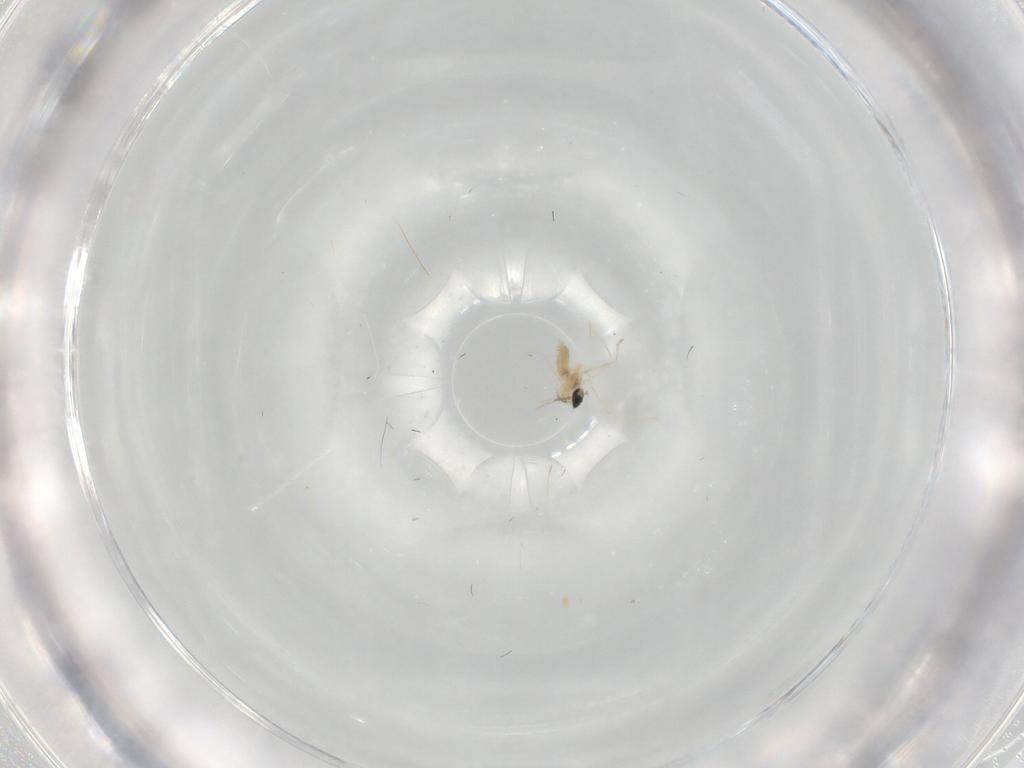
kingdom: Animalia
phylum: Arthropoda
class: Insecta
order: Diptera
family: Cecidomyiidae
